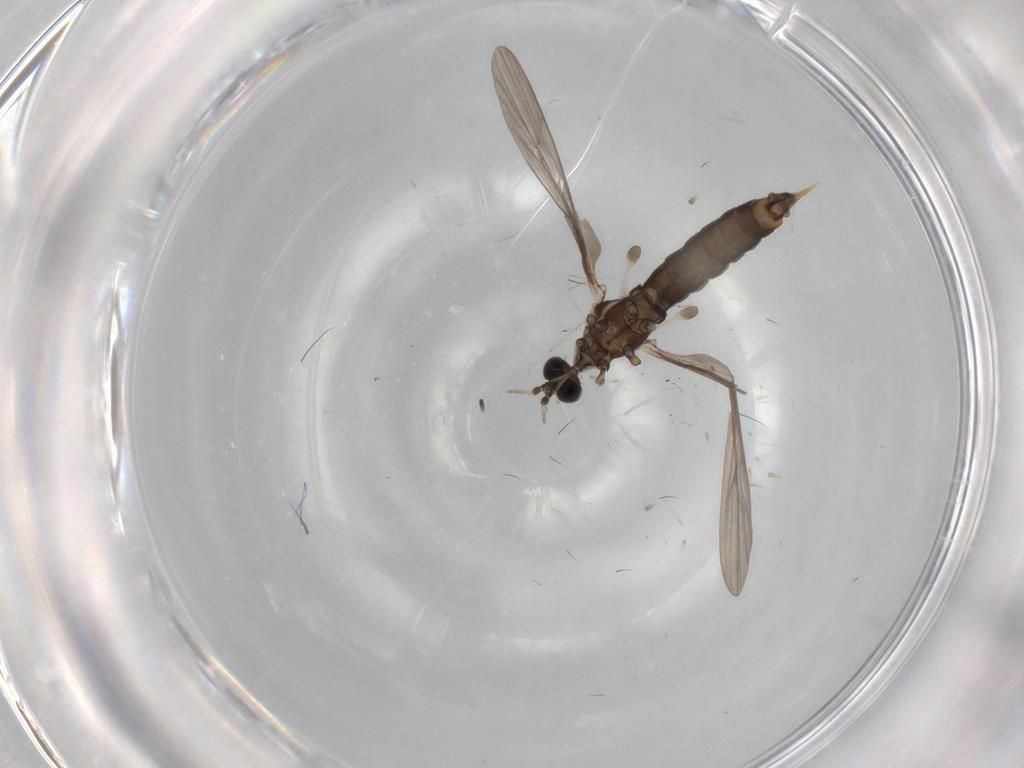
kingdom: Animalia
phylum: Arthropoda
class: Insecta
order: Diptera
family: Limoniidae
